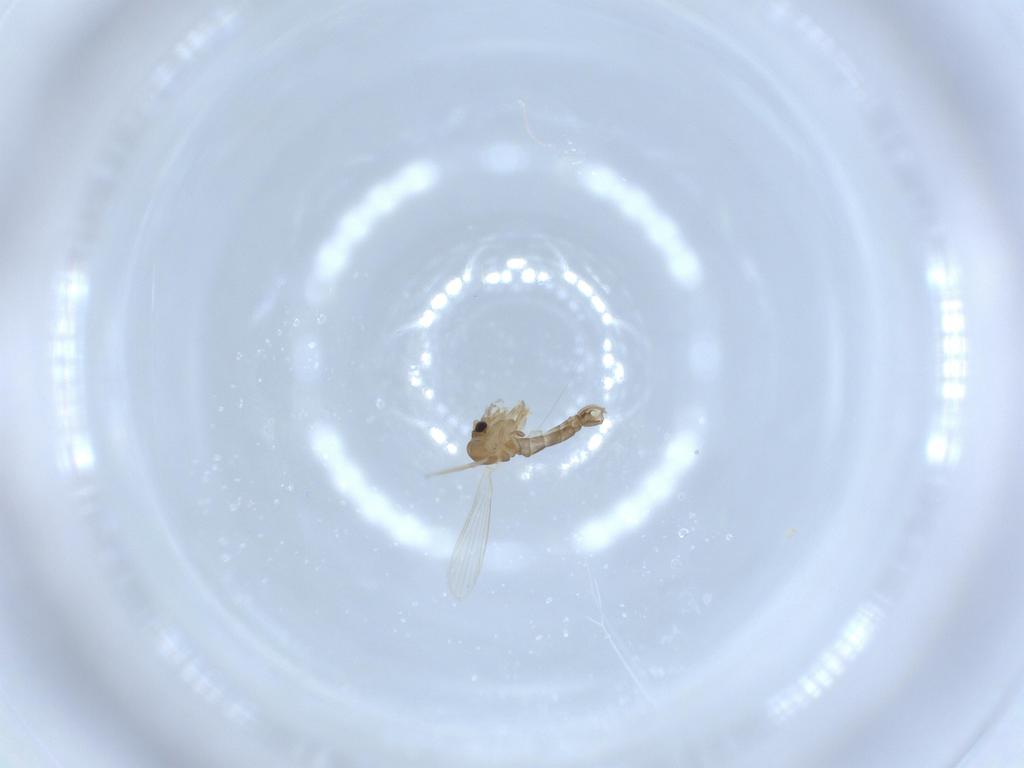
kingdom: Animalia
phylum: Arthropoda
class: Insecta
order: Diptera
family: Psychodidae
